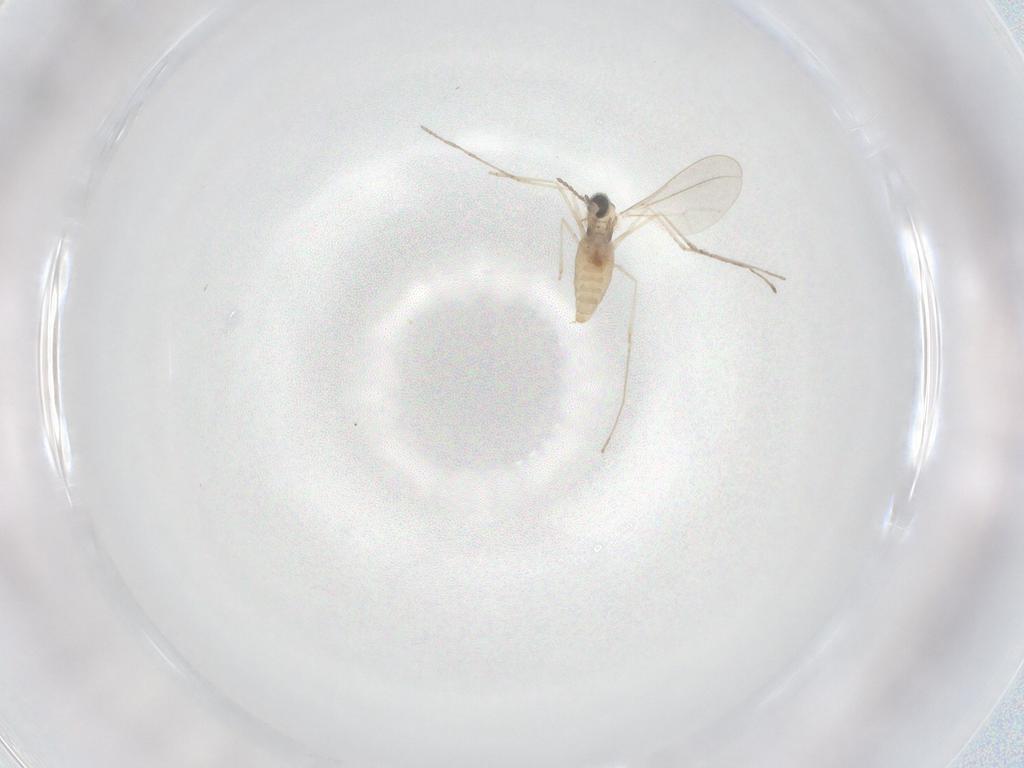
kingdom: Animalia
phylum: Arthropoda
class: Insecta
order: Diptera
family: Cecidomyiidae
